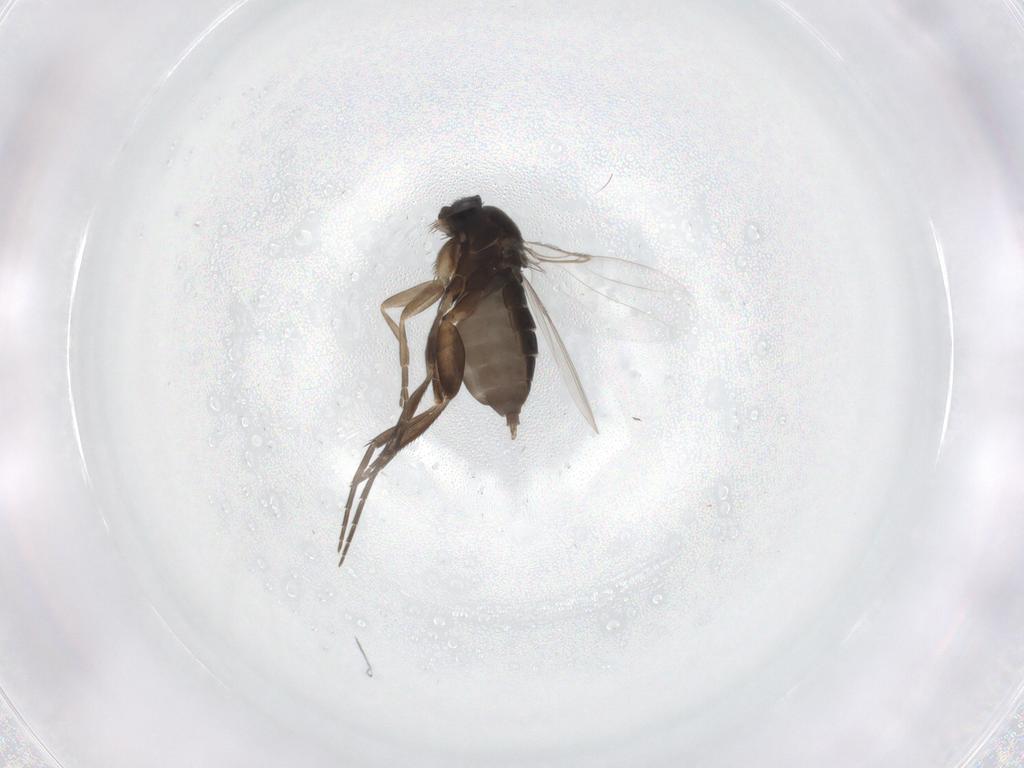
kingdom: Animalia
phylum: Arthropoda
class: Insecta
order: Diptera
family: Phoridae
